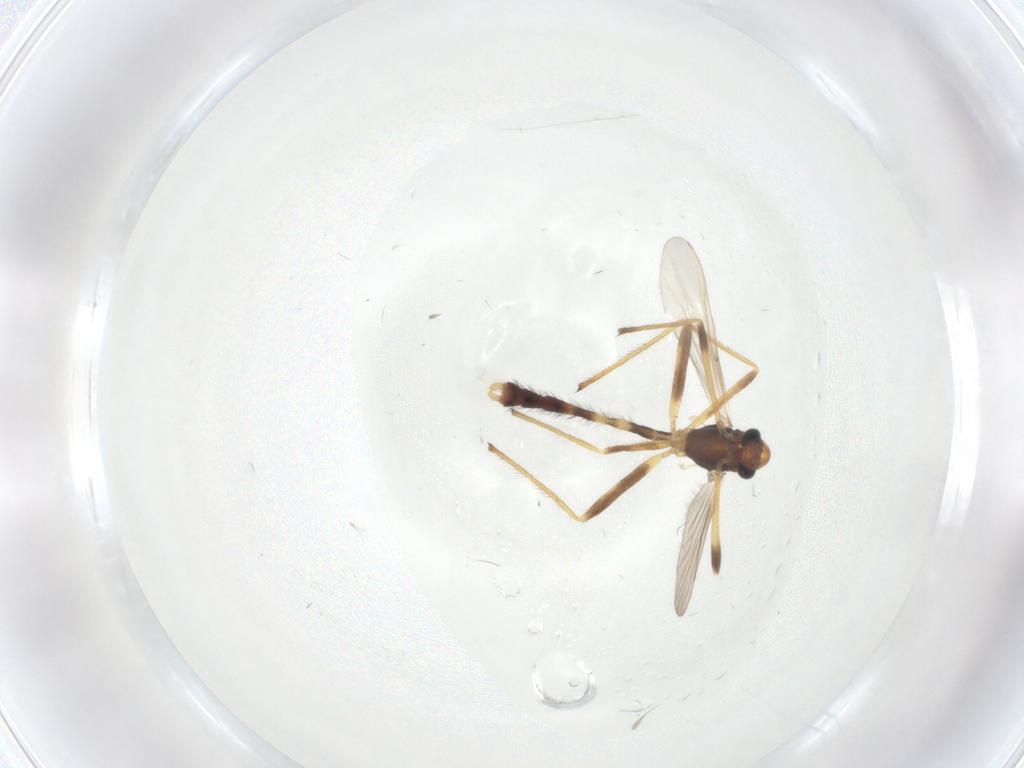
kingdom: Animalia
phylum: Arthropoda
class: Insecta
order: Diptera
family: Chironomidae
